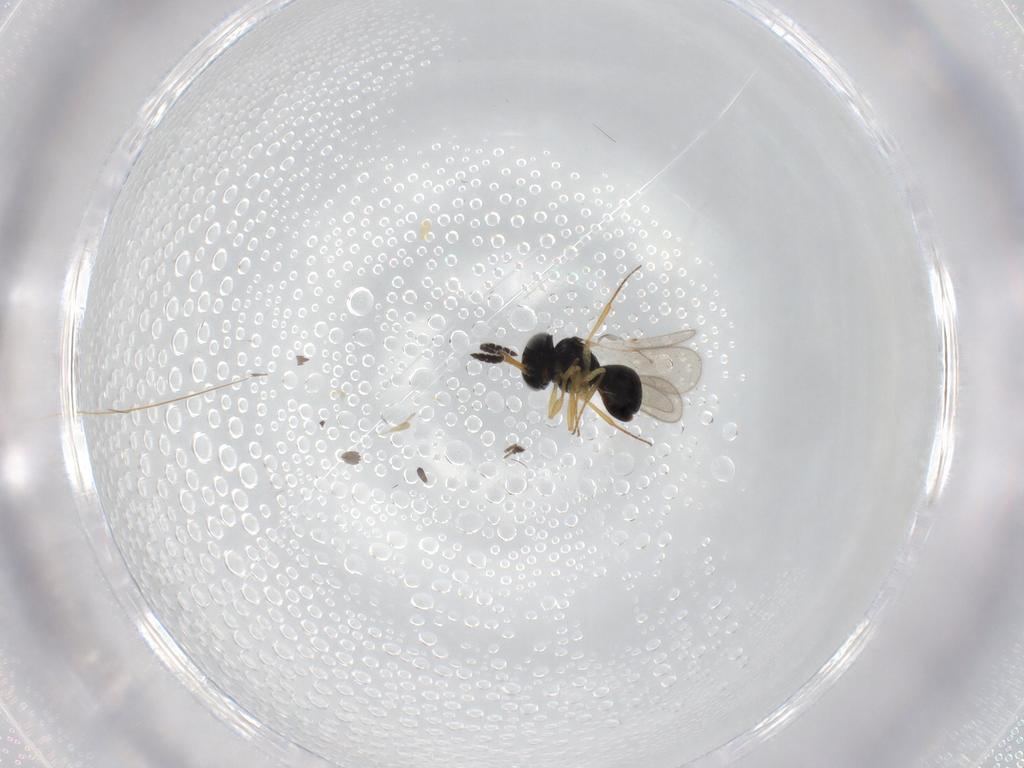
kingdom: Animalia
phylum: Arthropoda
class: Insecta
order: Hymenoptera
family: Scelionidae
